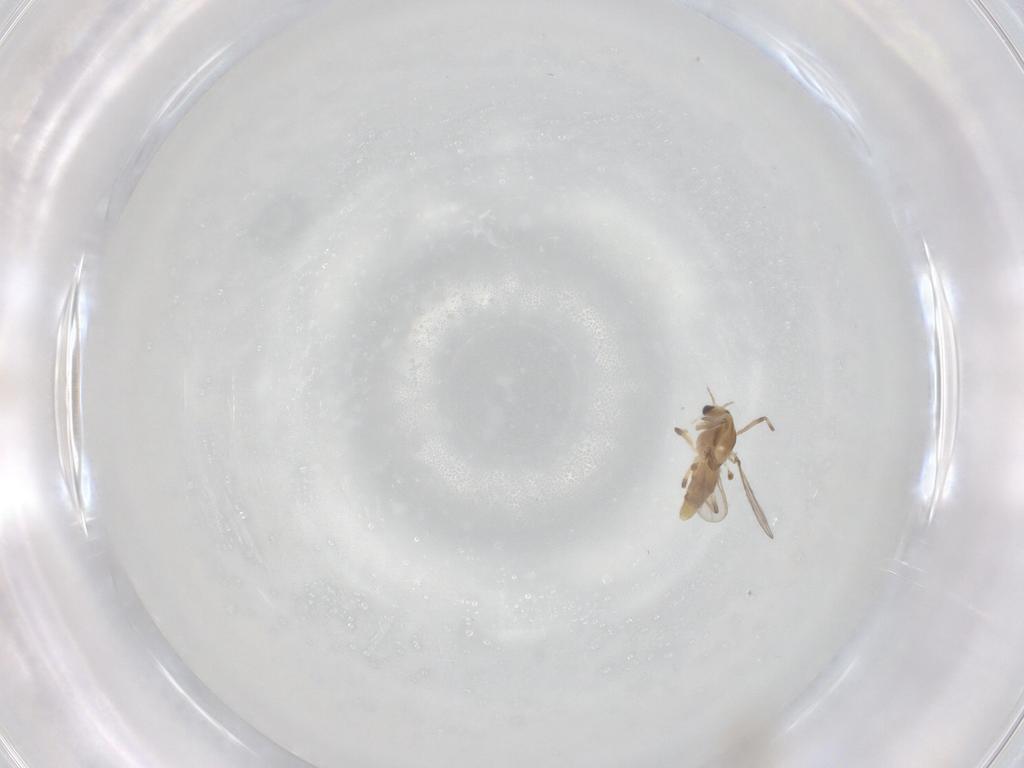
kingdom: Animalia
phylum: Arthropoda
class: Insecta
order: Diptera
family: Chironomidae
